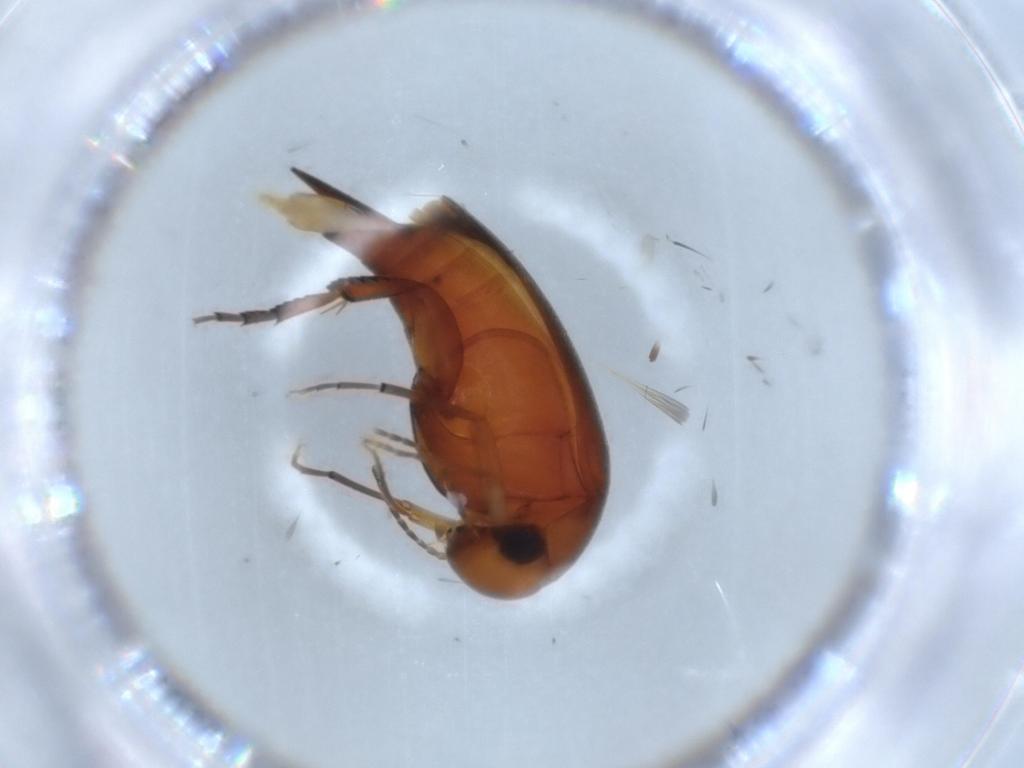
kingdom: Animalia
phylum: Arthropoda
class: Insecta
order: Coleoptera
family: Mordellidae
